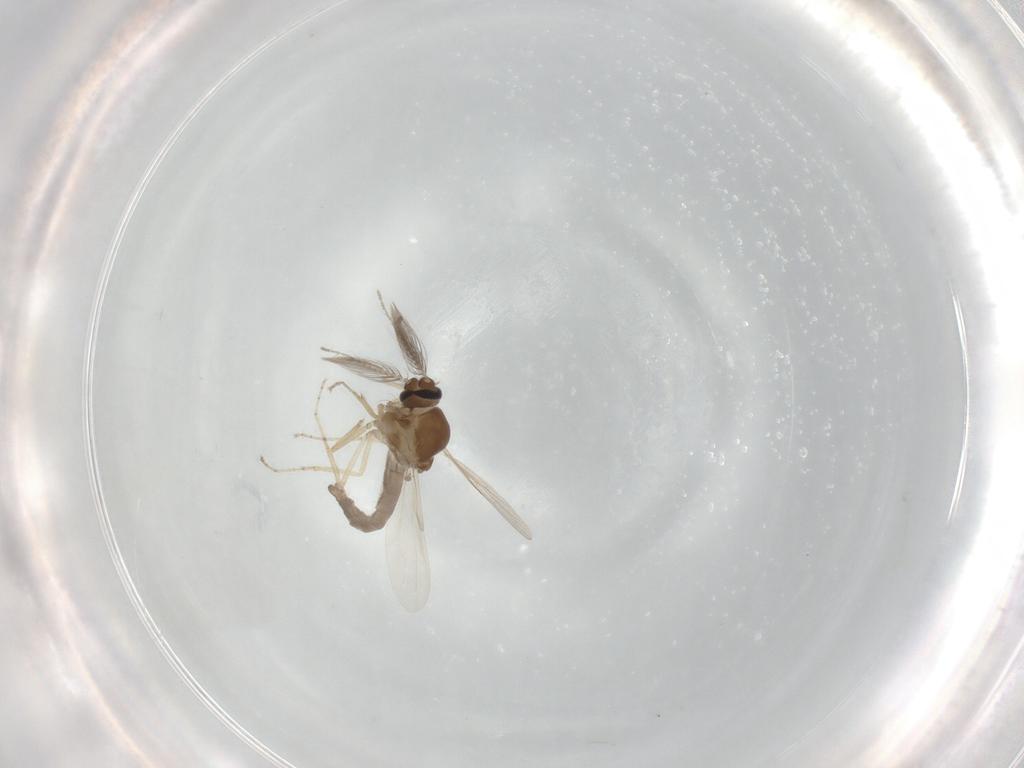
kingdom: Animalia
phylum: Arthropoda
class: Insecta
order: Diptera
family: Ceratopogonidae
